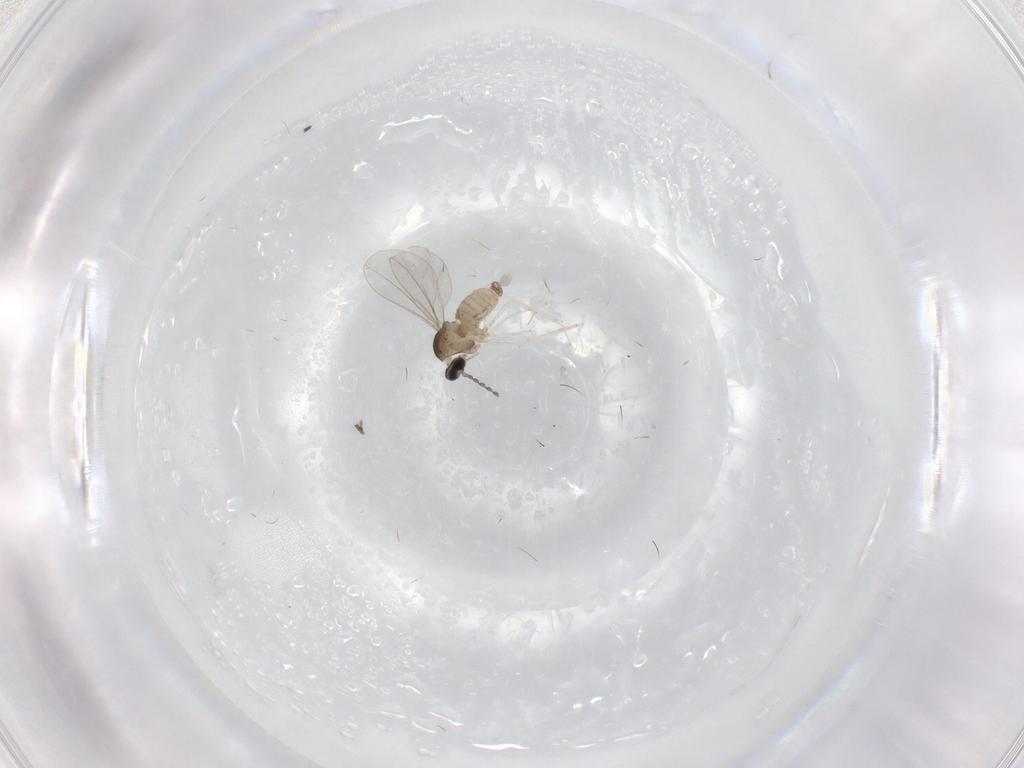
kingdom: Animalia
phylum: Arthropoda
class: Insecta
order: Diptera
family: Cecidomyiidae
